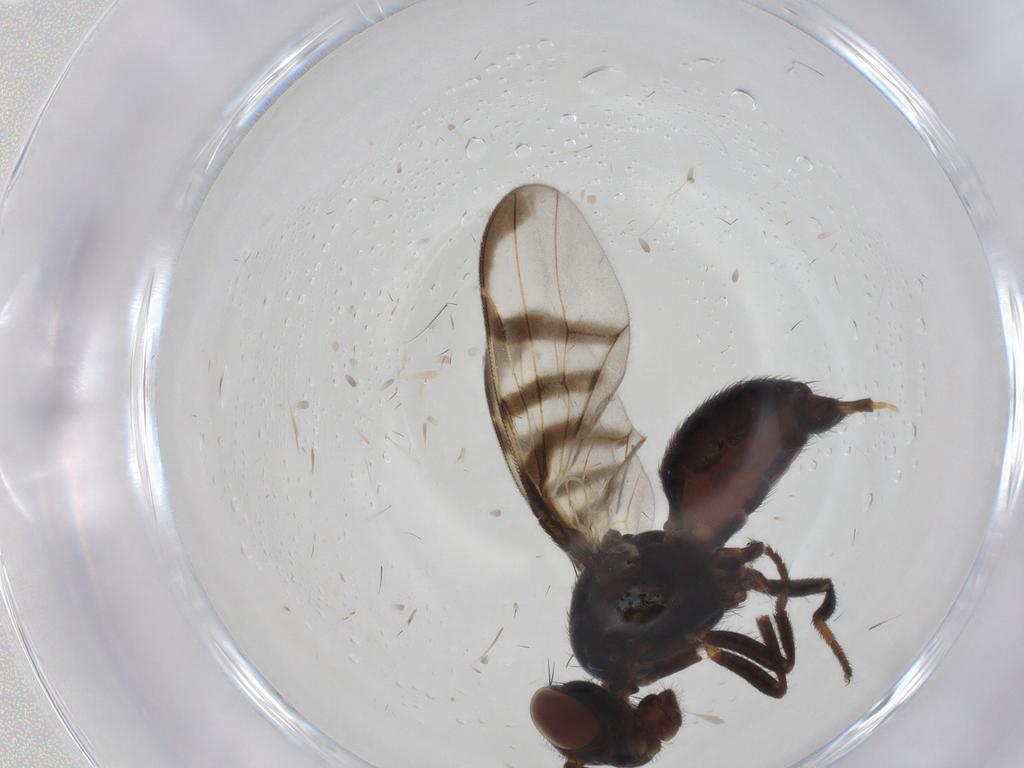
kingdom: Animalia
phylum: Arthropoda
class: Insecta
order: Diptera
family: Platystomatidae
